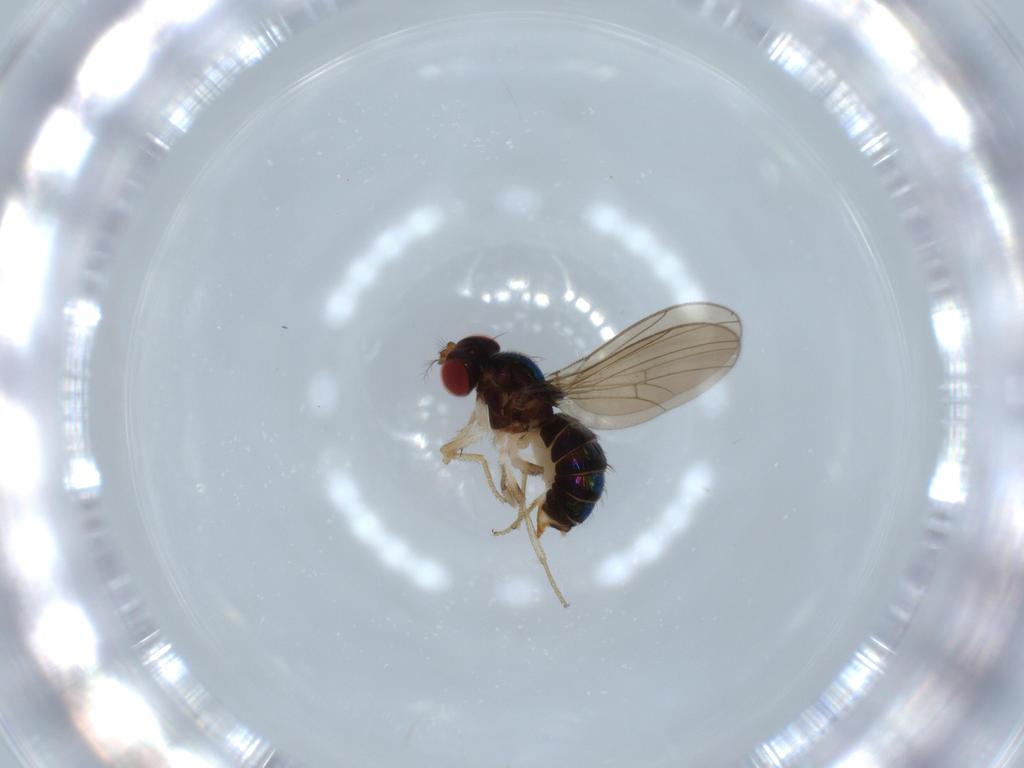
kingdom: Animalia
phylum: Arthropoda
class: Insecta
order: Diptera
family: Drosophilidae
